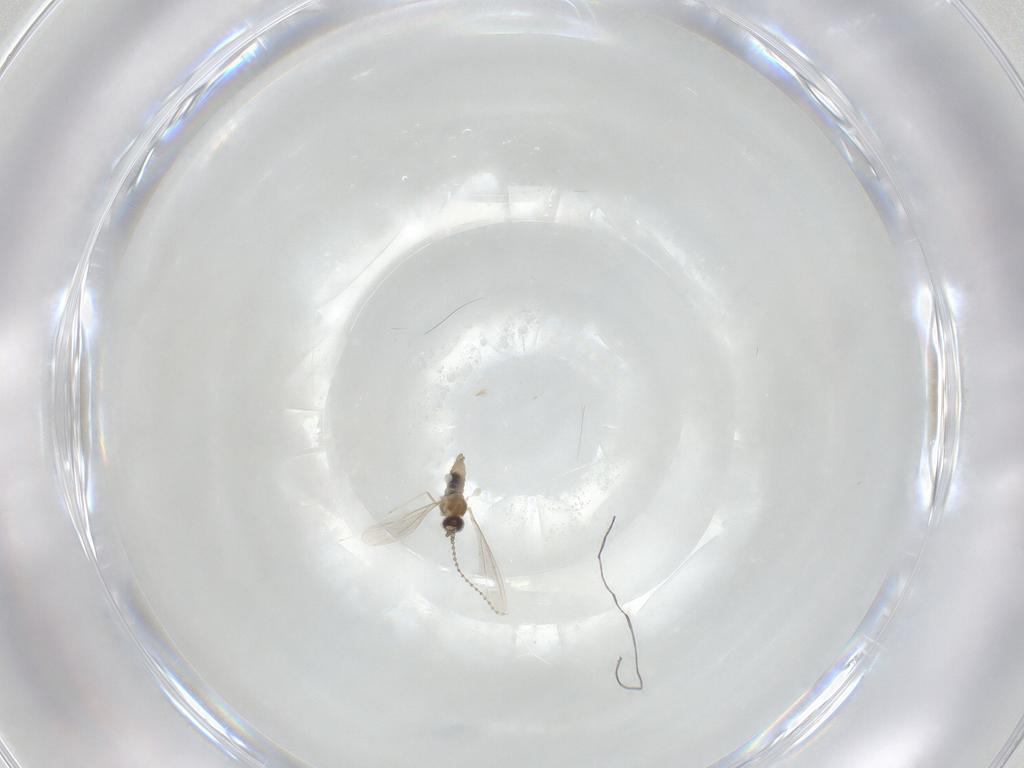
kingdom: Animalia
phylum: Arthropoda
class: Insecta
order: Diptera
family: Cecidomyiidae
